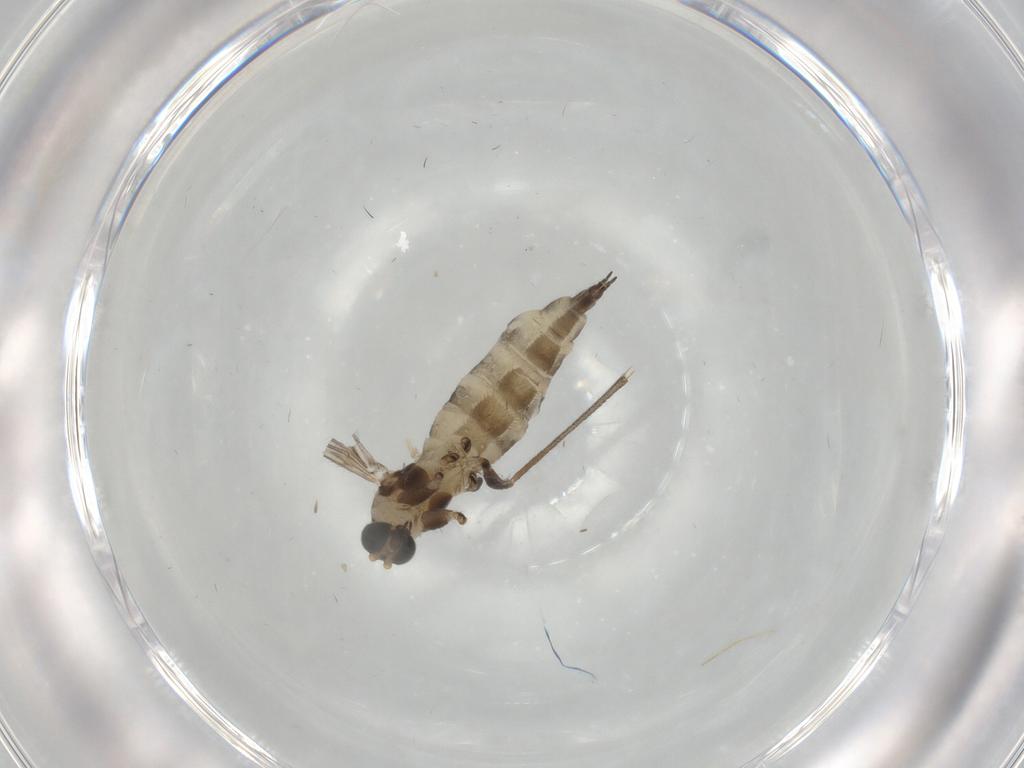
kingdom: Animalia
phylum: Arthropoda
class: Insecta
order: Diptera
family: Sciaridae
